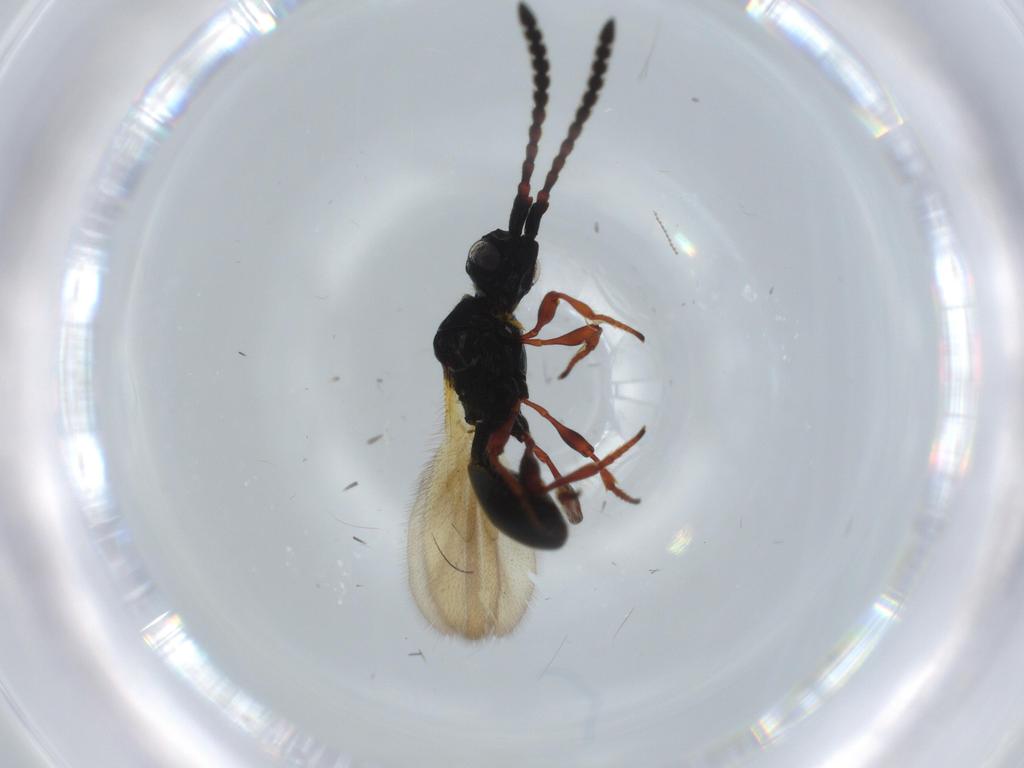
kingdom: Animalia
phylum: Arthropoda
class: Insecta
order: Hymenoptera
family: Diapriidae
